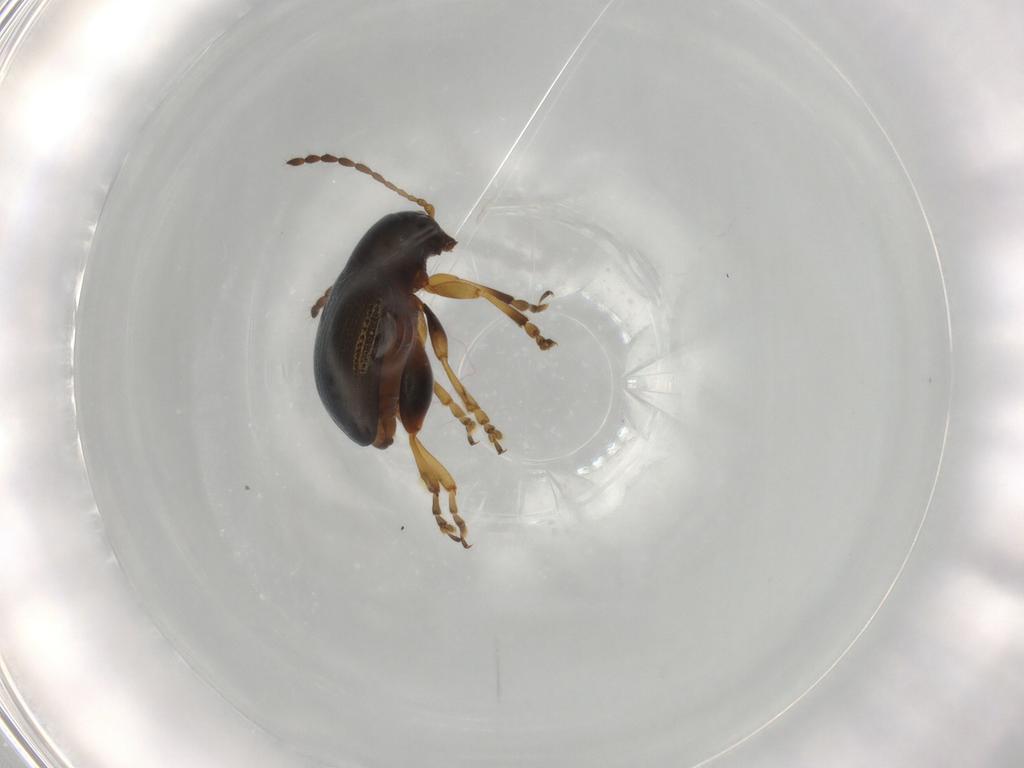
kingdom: Animalia
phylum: Arthropoda
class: Insecta
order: Coleoptera
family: Chrysomelidae
